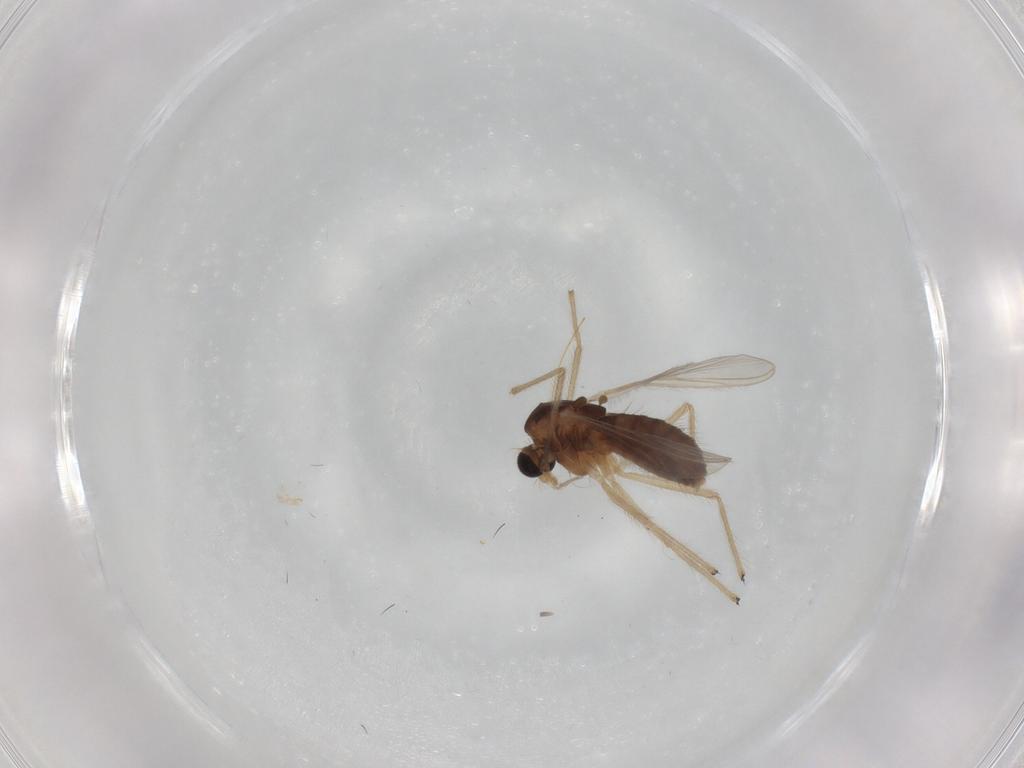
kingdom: Animalia
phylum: Arthropoda
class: Insecta
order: Diptera
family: Chironomidae
